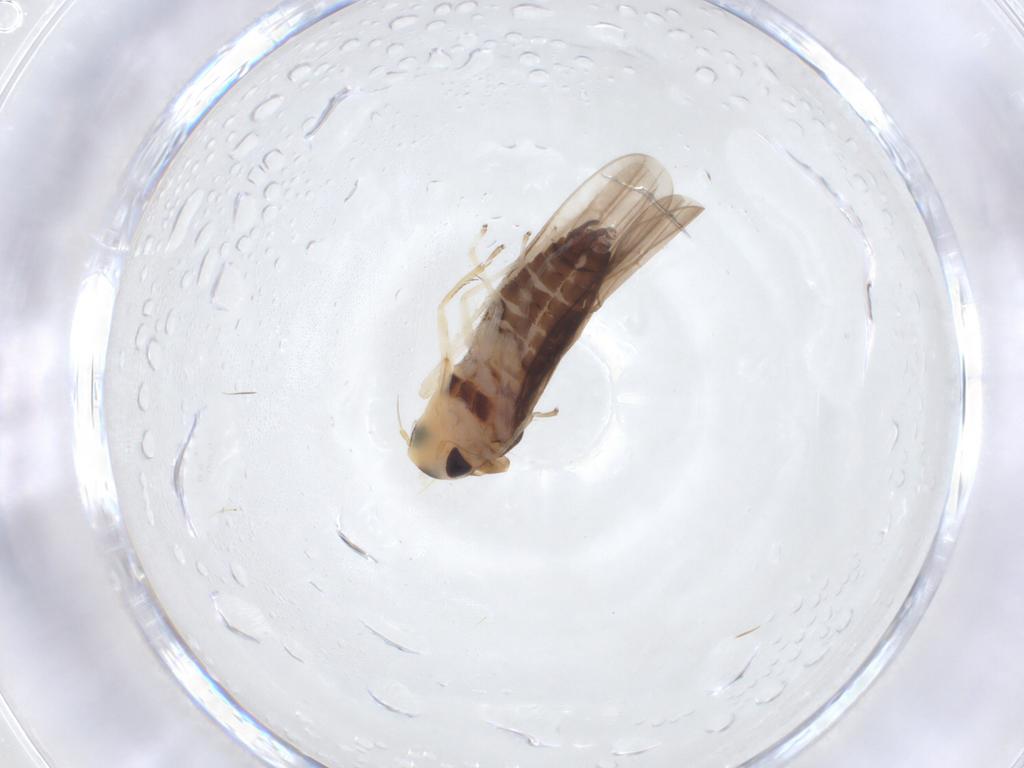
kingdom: Animalia
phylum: Arthropoda
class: Insecta
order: Hemiptera
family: Cicadellidae
